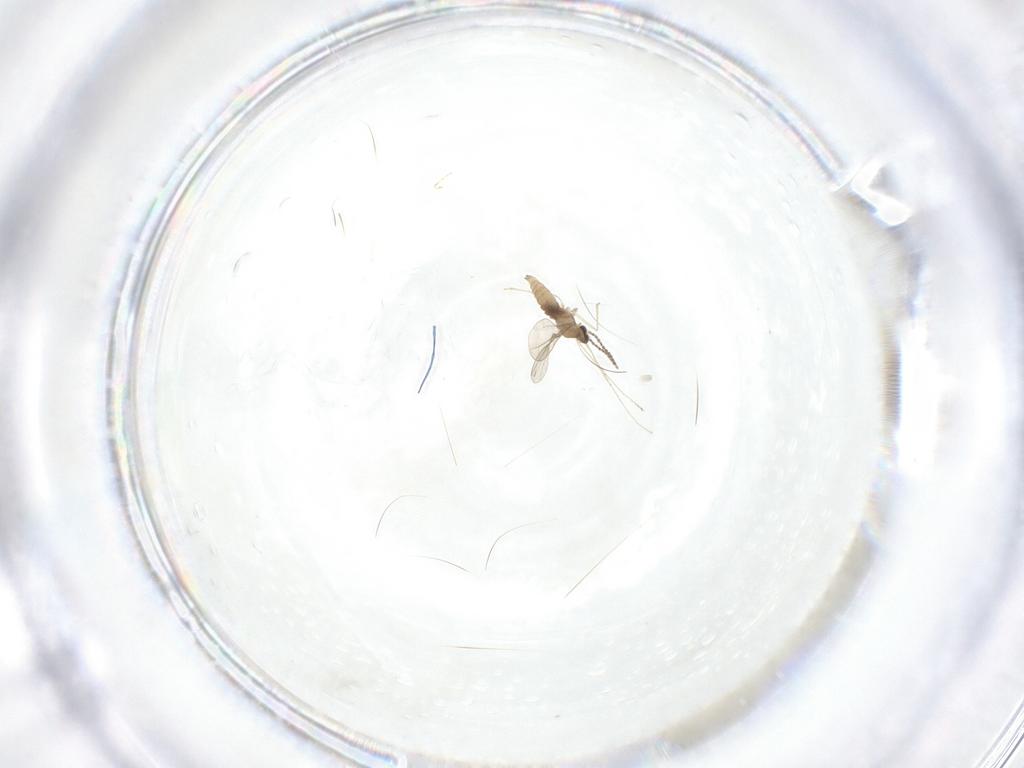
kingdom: Animalia
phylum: Arthropoda
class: Insecta
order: Diptera
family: Cecidomyiidae
